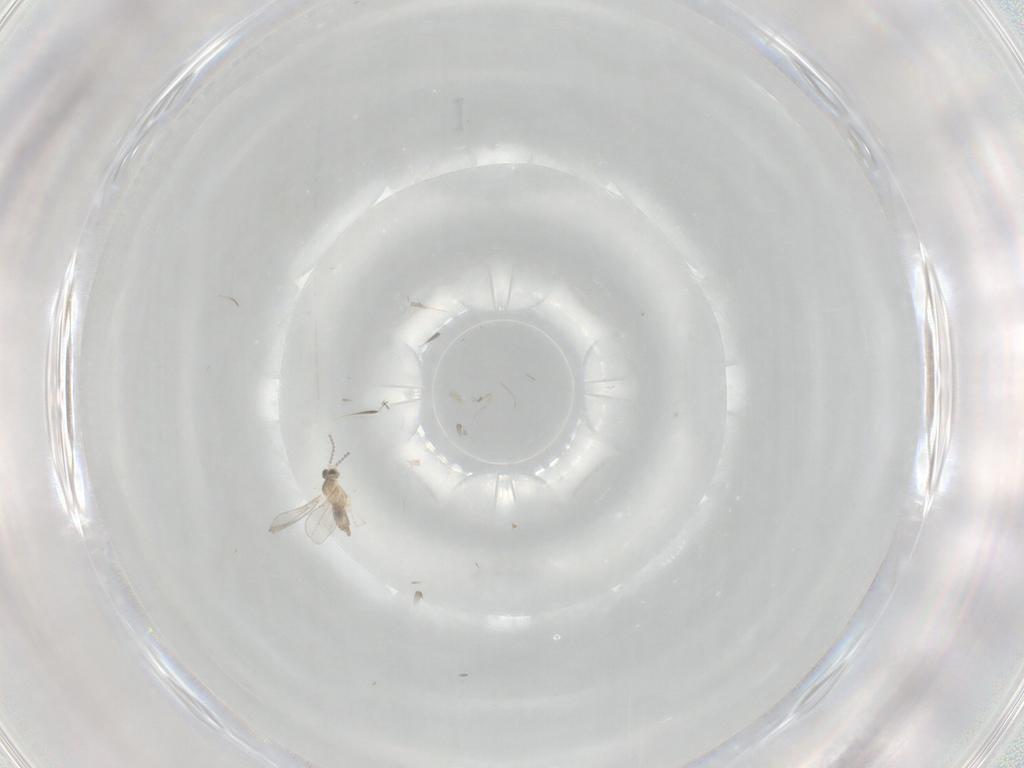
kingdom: Animalia
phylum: Arthropoda
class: Insecta
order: Diptera
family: Cecidomyiidae
